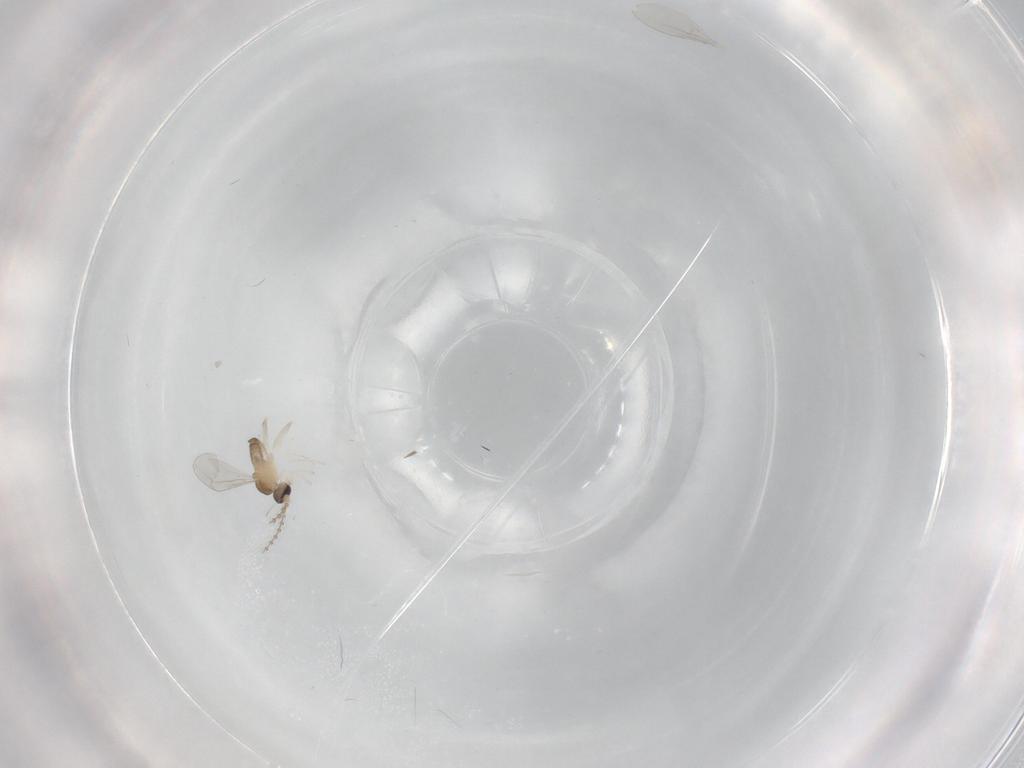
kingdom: Animalia
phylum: Arthropoda
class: Insecta
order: Diptera
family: Cecidomyiidae
